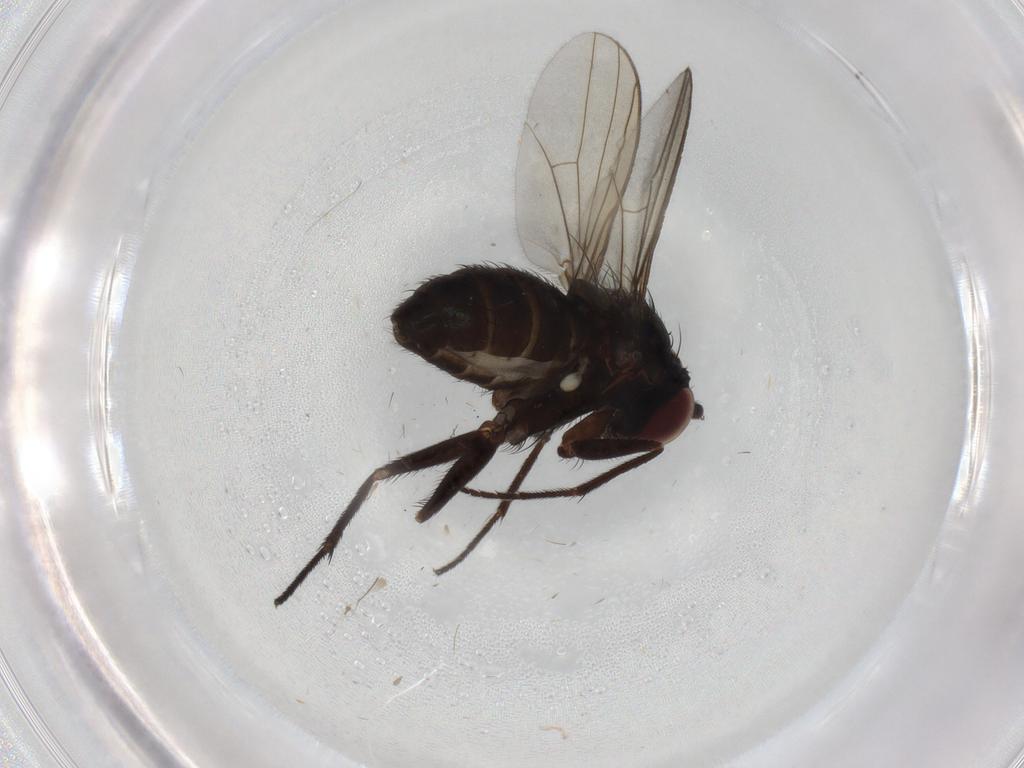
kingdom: Animalia
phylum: Arthropoda
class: Insecta
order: Diptera
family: Dolichopodidae
